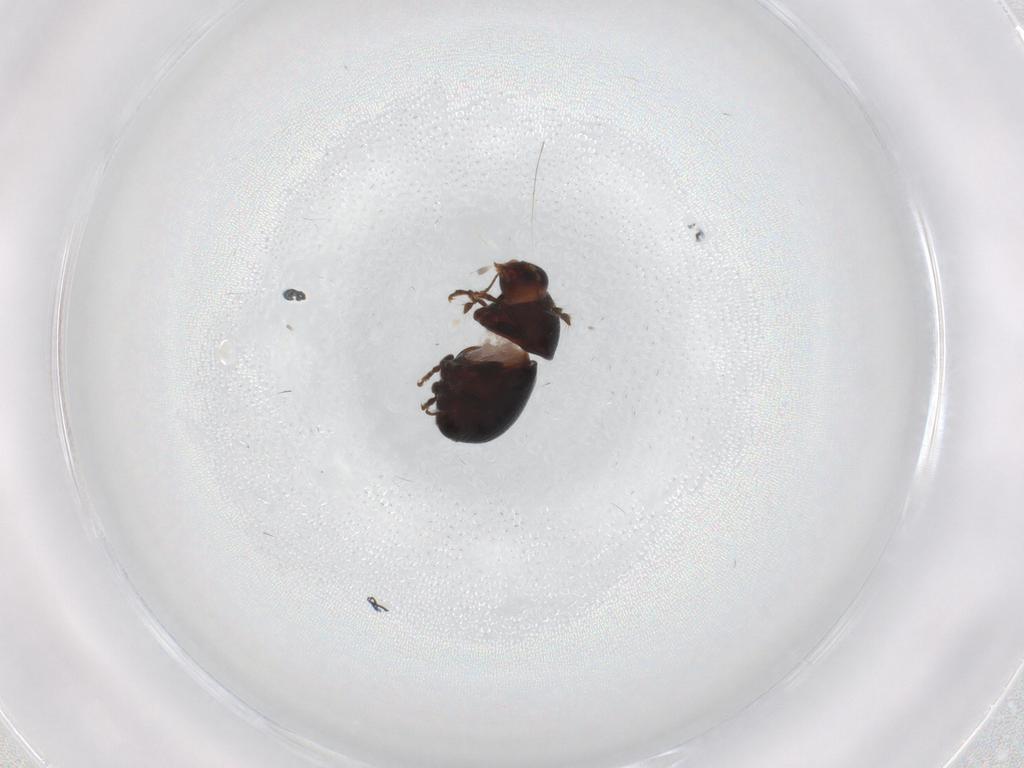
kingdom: Animalia
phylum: Arthropoda
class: Insecta
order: Coleoptera
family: Anthribidae
